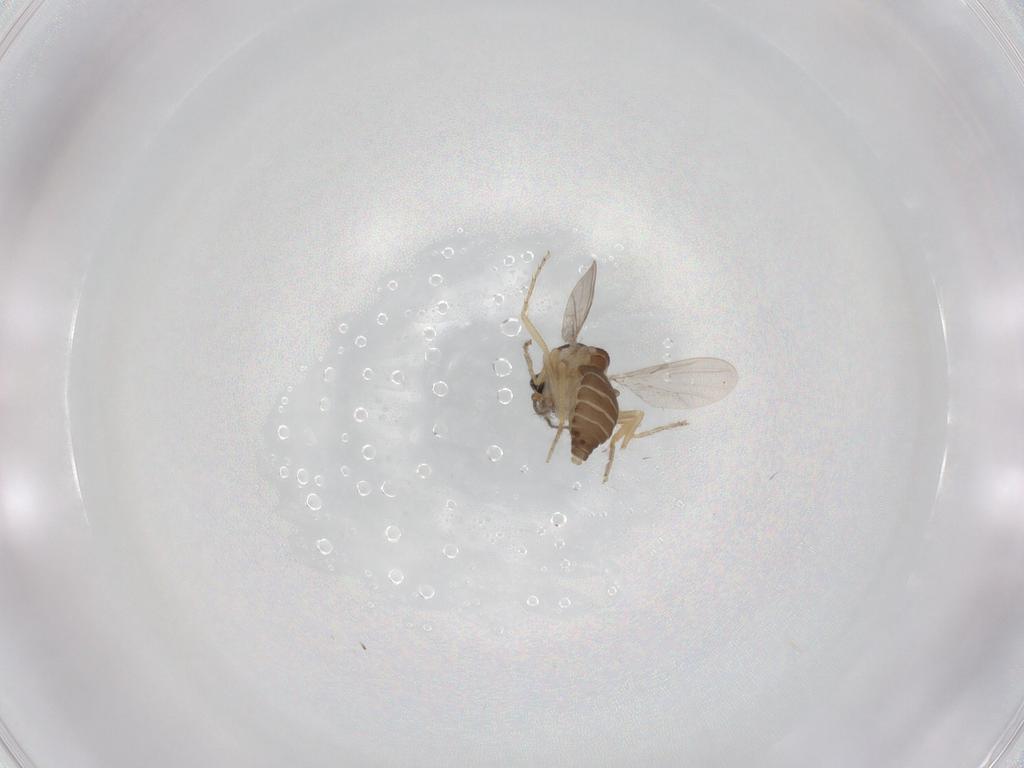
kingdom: Animalia
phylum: Arthropoda
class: Insecta
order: Diptera
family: Ceratopogonidae
